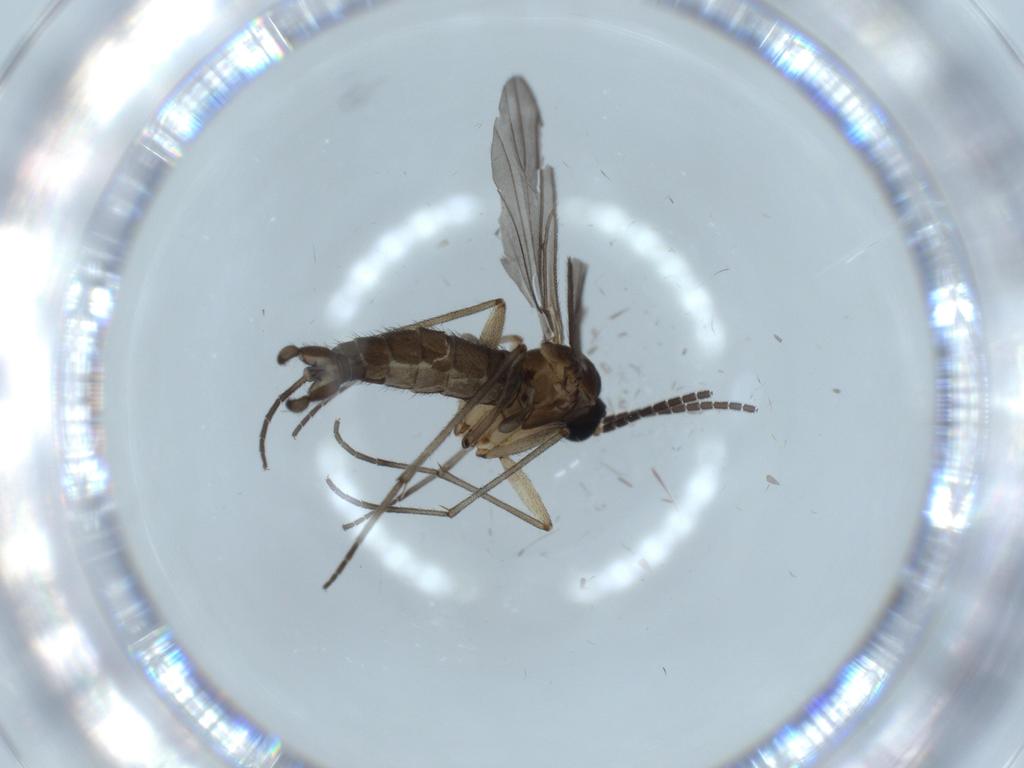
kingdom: Animalia
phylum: Arthropoda
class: Insecta
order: Diptera
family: Sciaridae
